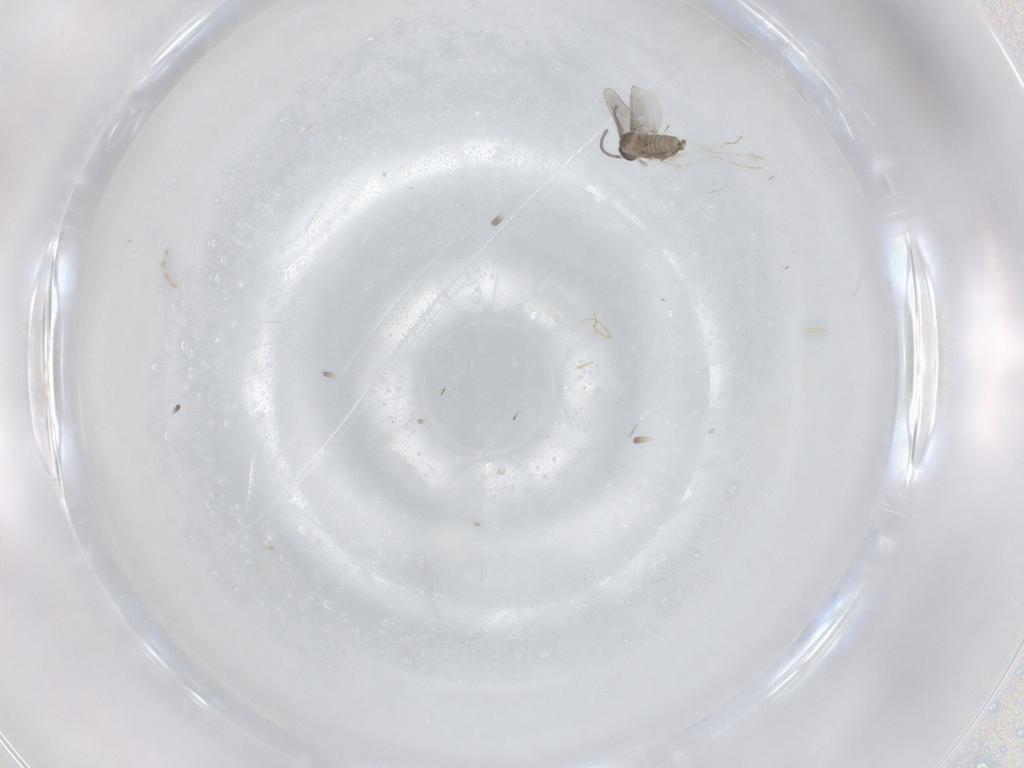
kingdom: Animalia
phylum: Arthropoda
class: Insecta
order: Diptera
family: Cecidomyiidae
